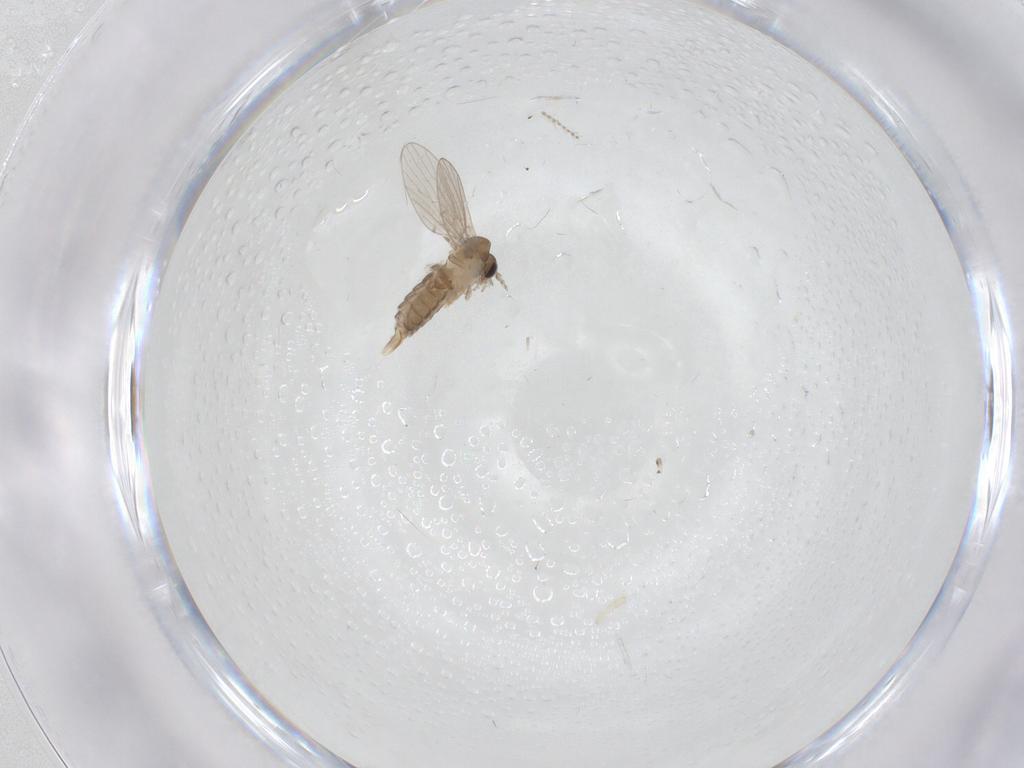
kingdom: Animalia
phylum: Arthropoda
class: Insecta
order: Diptera
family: Psychodidae
